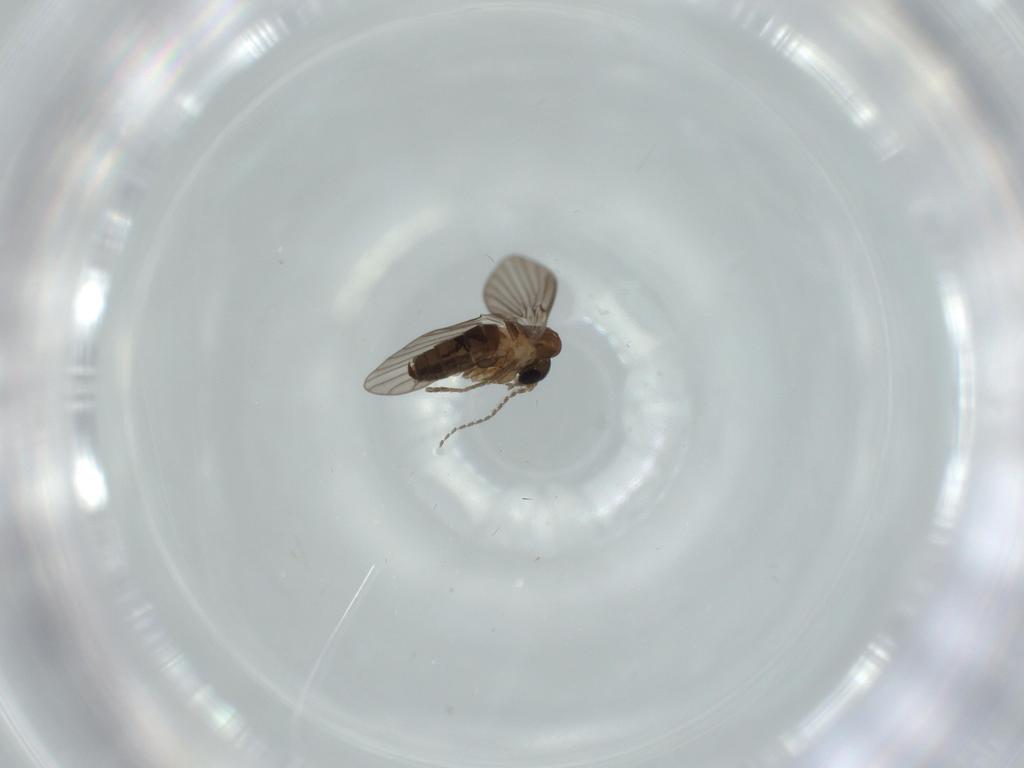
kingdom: Animalia
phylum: Arthropoda
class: Insecta
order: Diptera
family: Psychodidae
